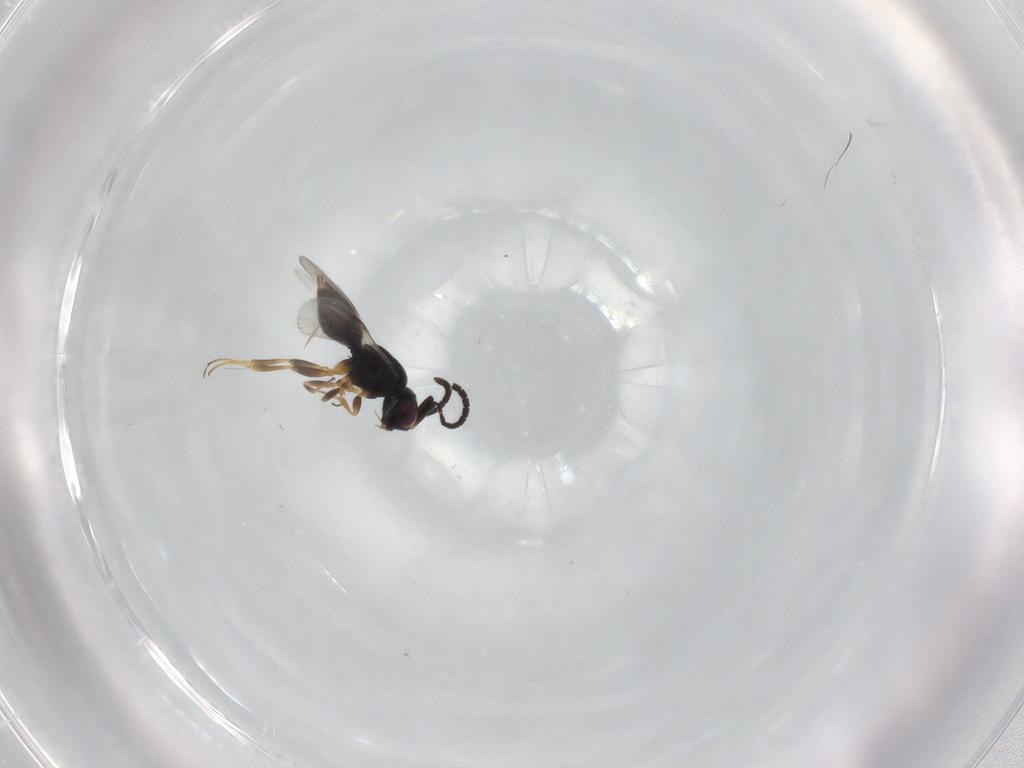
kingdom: Animalia
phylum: Arthropoda
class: Insecta
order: Hymenoptera
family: Megaspilidae
